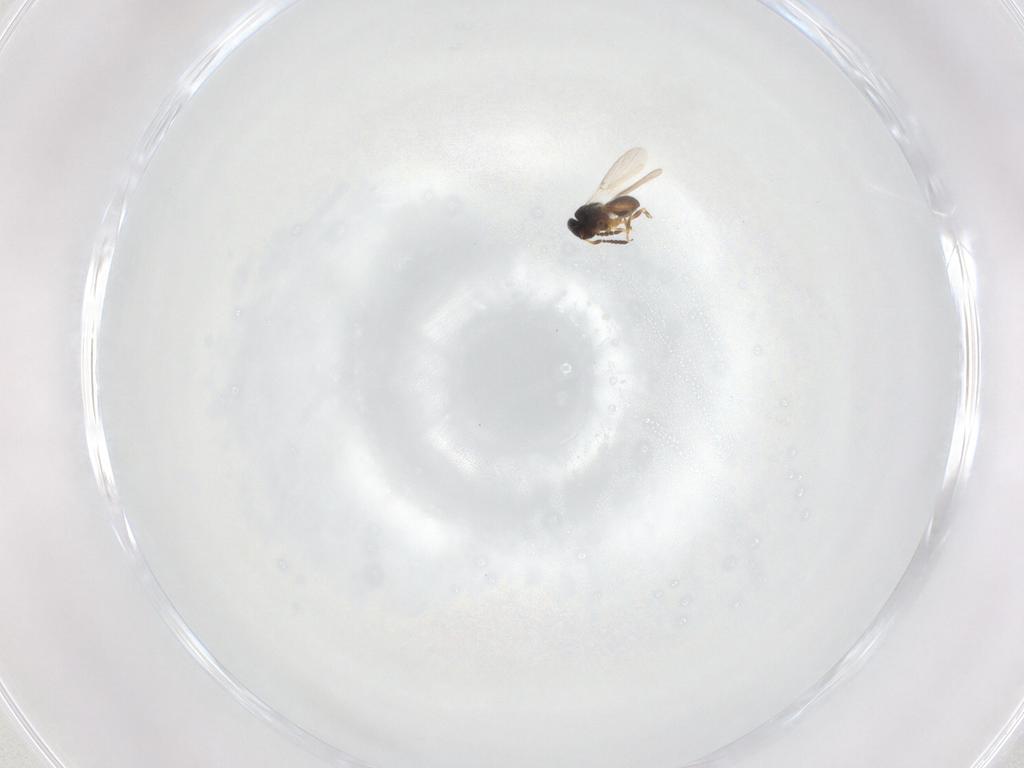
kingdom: Animalia
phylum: Arthropoda
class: Insecta
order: Hymenoptera
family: Platygastridae
